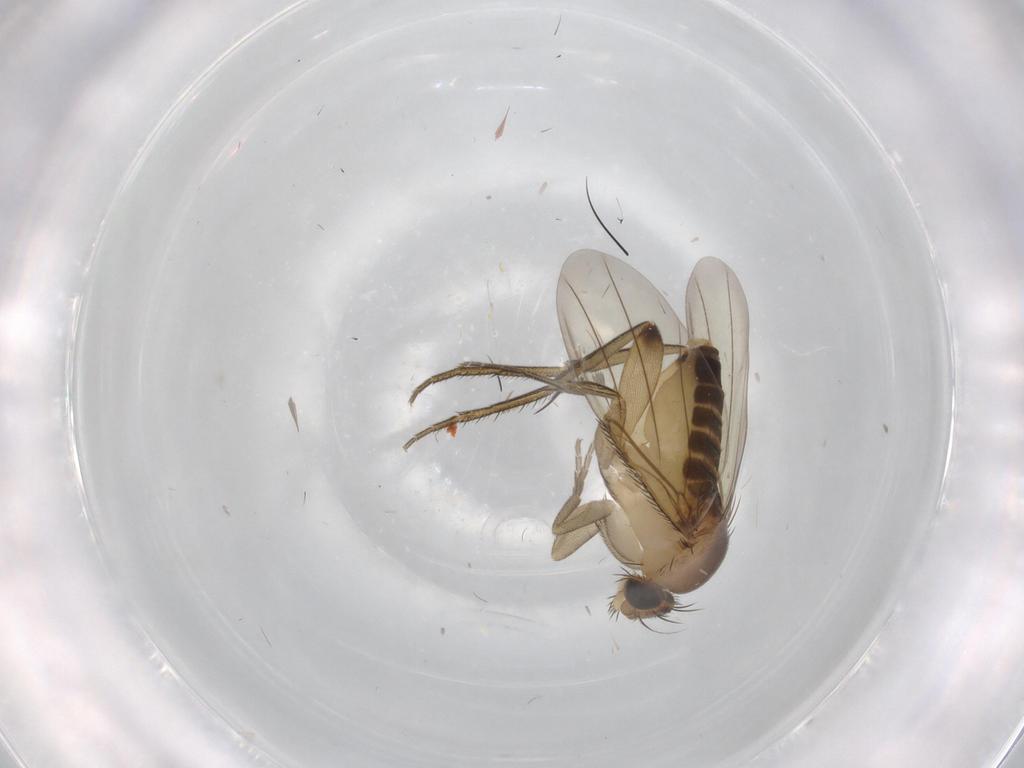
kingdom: Animalia
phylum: Arthropoda
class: Insecta
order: Diptera
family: Phoridae
